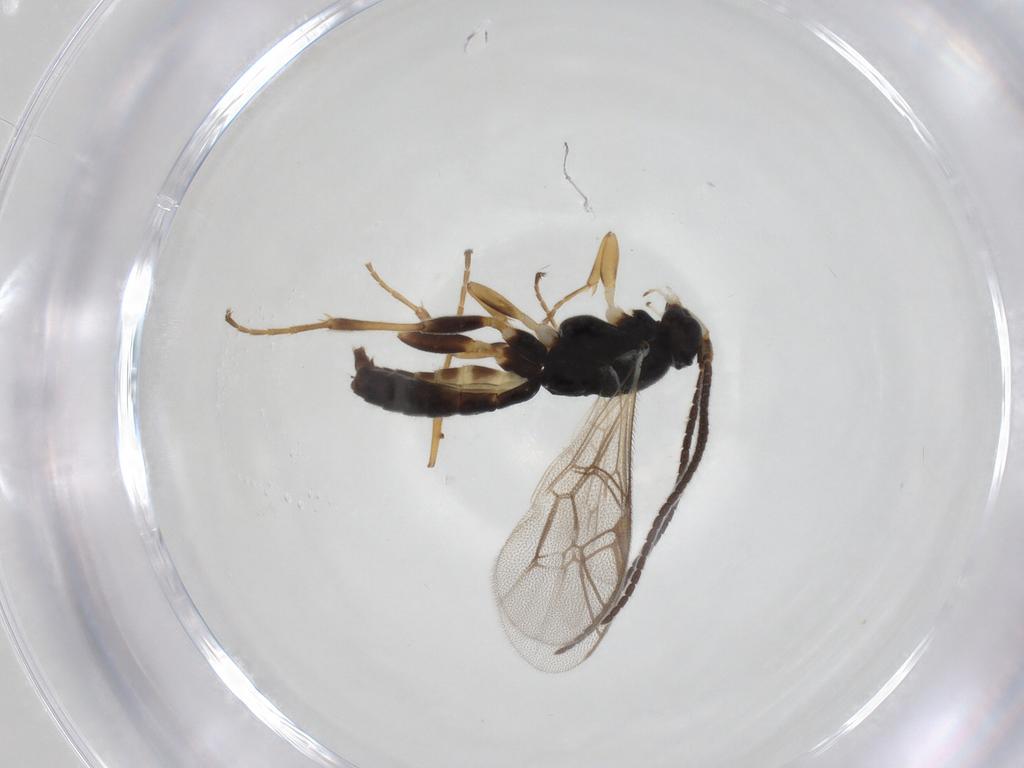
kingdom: Animalia
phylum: Arthropoda
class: Insecta
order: Hymenoptera
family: Ichneumonidae
